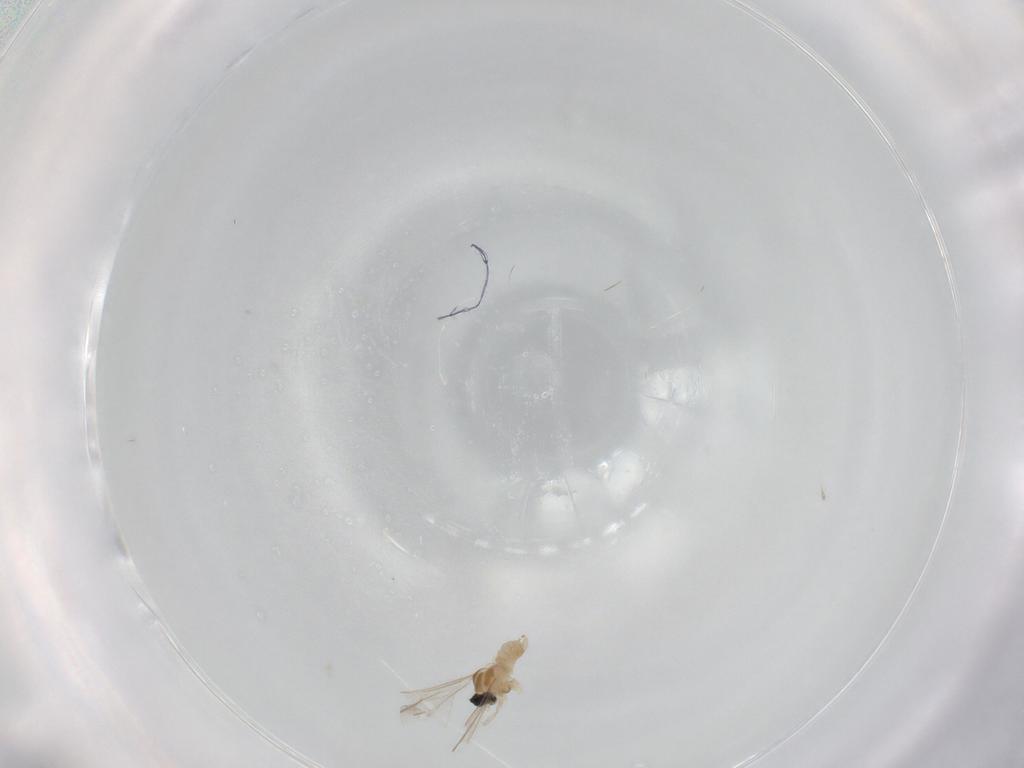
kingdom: Animalia
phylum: Arthropoda
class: Insecta
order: Diptera
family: Cecidomyiidae
